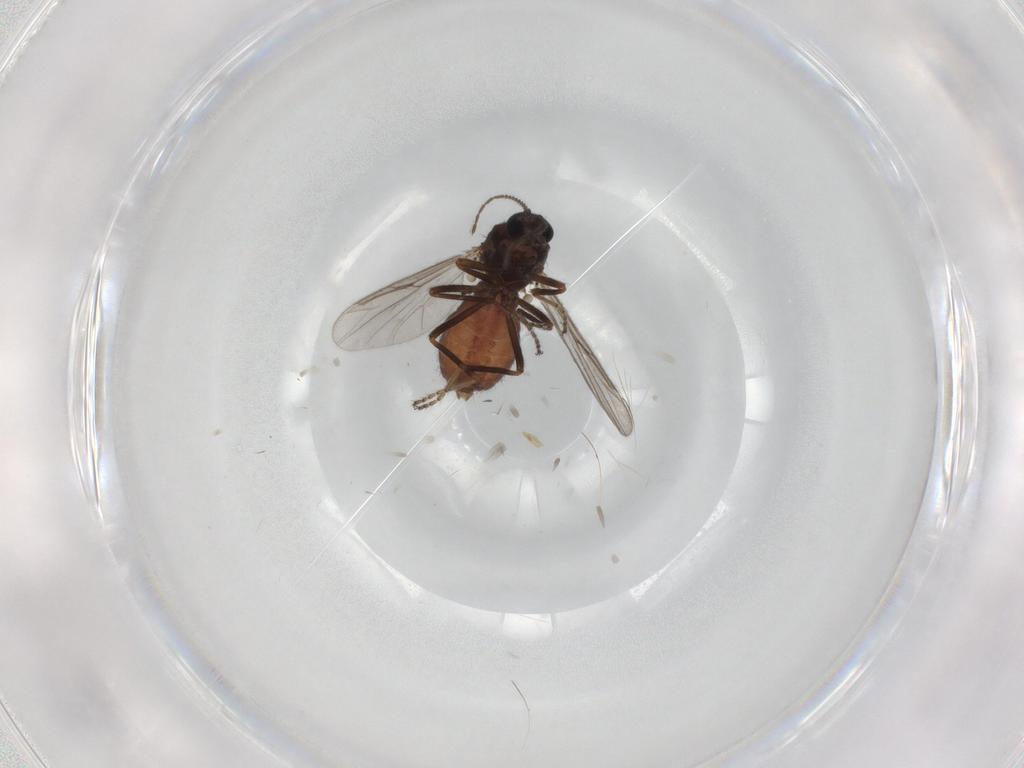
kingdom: Animalia
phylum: Arthropoda
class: Insecta
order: Diptera
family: Ceratopogonidae
